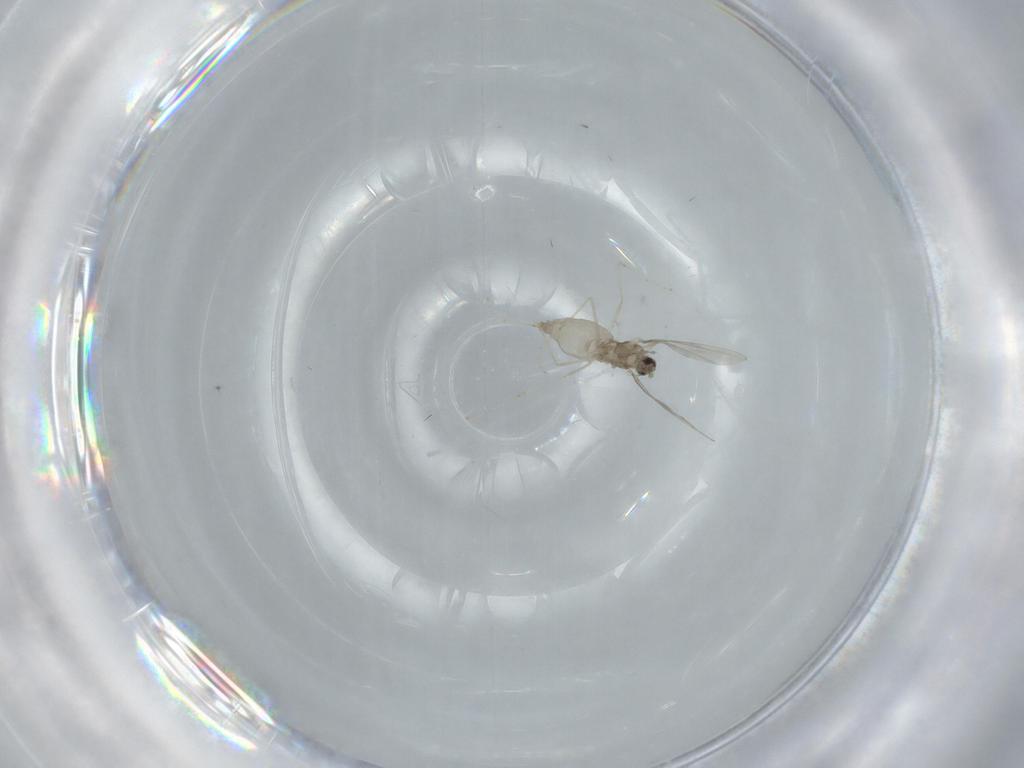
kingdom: Animalia
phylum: Arthropoda
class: Insecta
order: Diptera
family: Cecidomyiidae
